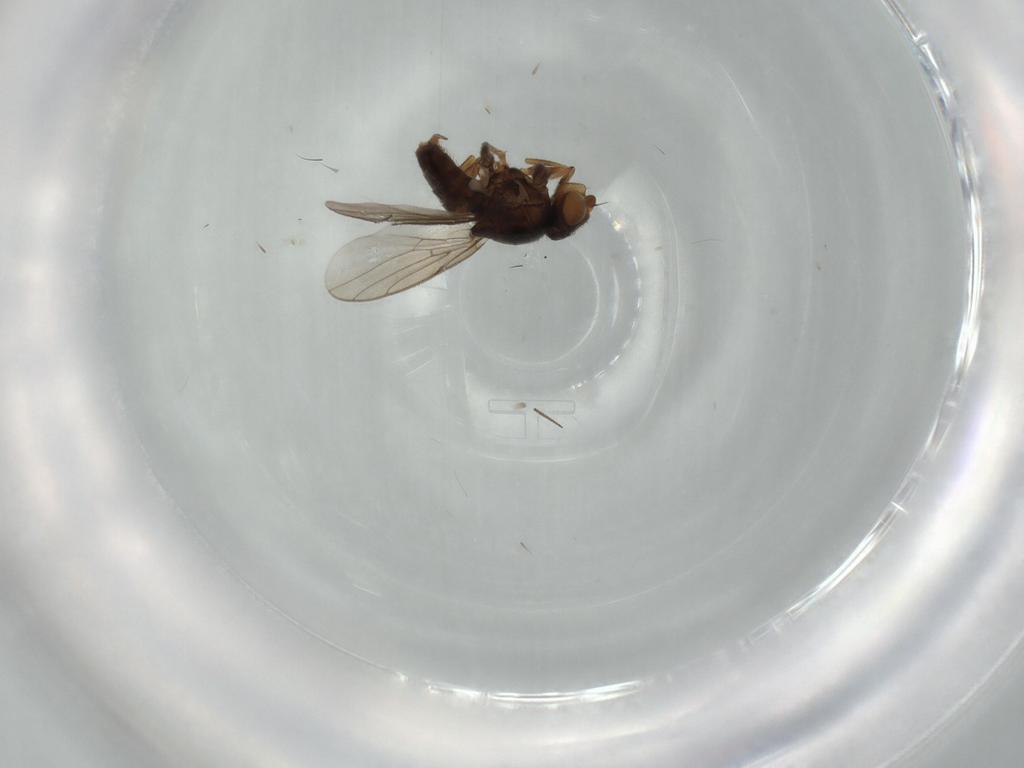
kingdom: Animalia
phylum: Arthropoda
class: Insecta
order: Diptera
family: Chloropidae
